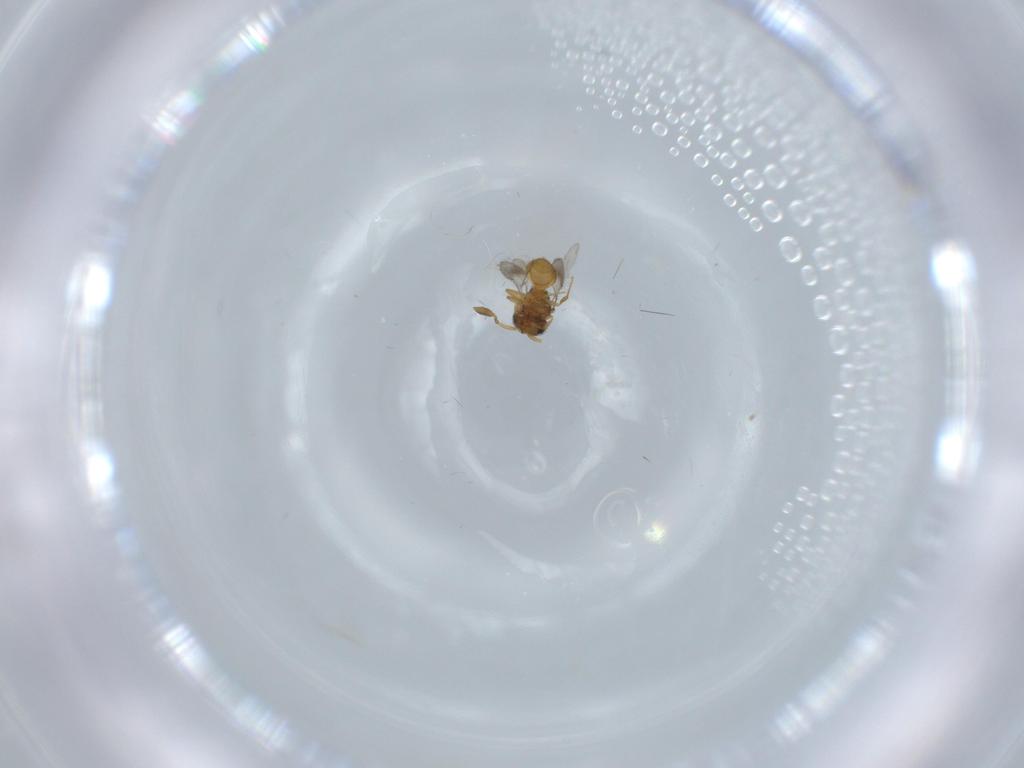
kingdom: Animalia
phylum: Arthropoda
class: Insecta
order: Hymenoptera
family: Scelionidae
